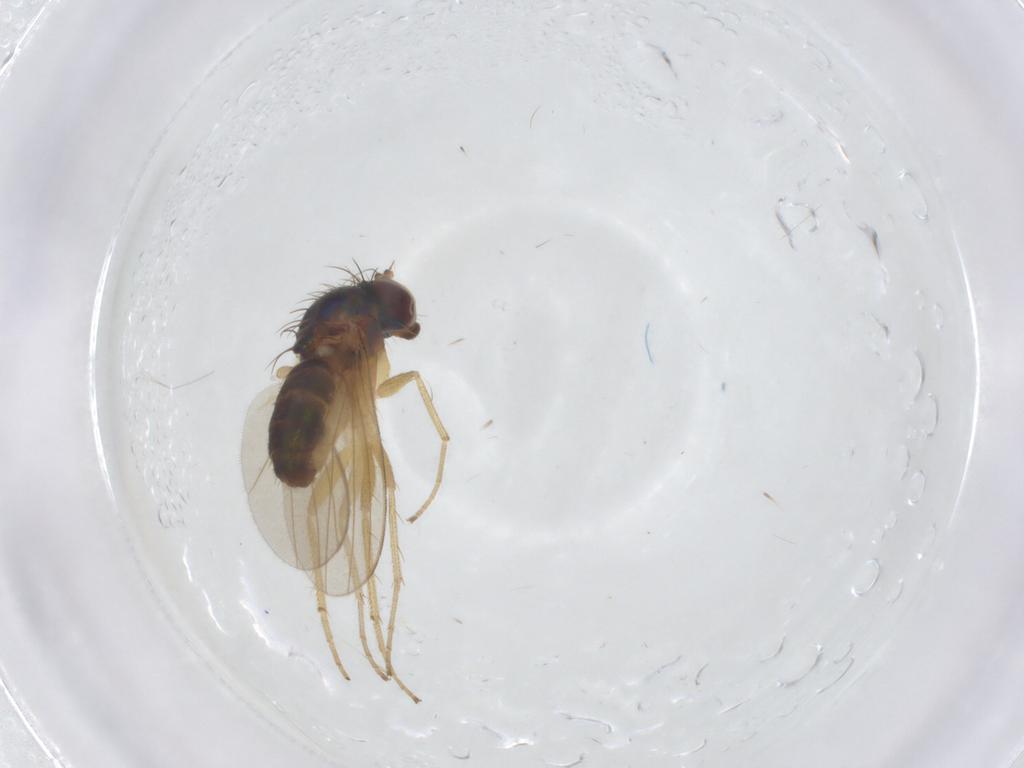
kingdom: Animalia
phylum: Arthropoda
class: Insecta
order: Diptera
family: Dolichopodidae
